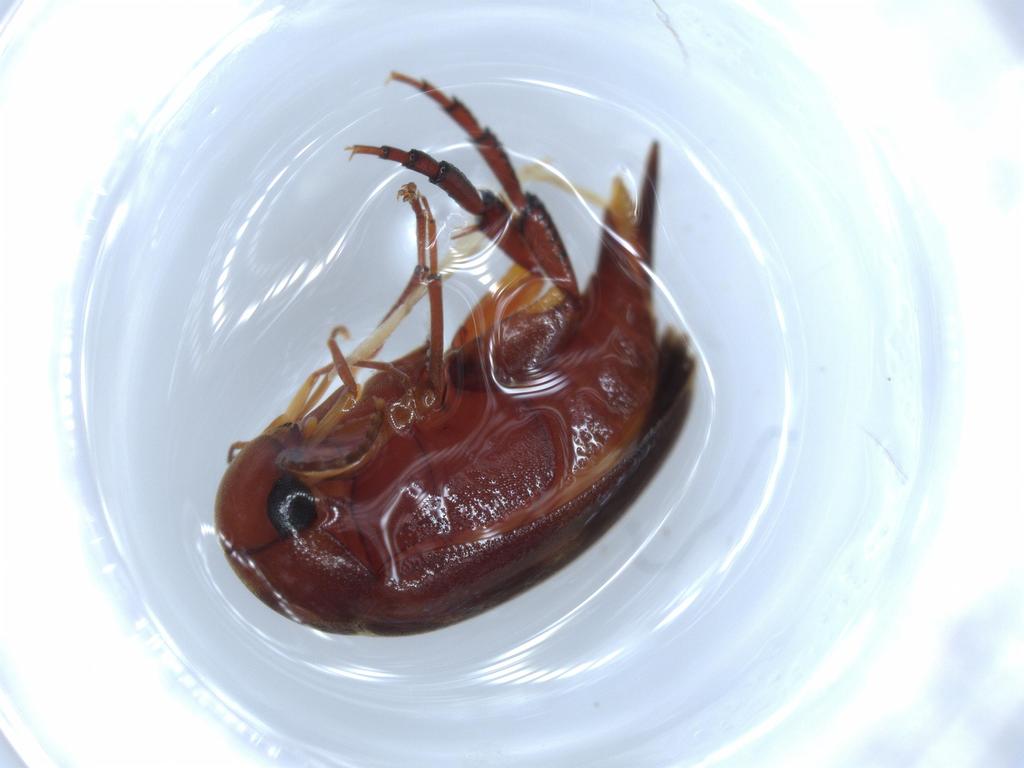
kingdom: Animalia
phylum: Arthropoda
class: Insecta
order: Coleoptera
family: Mordellidae
